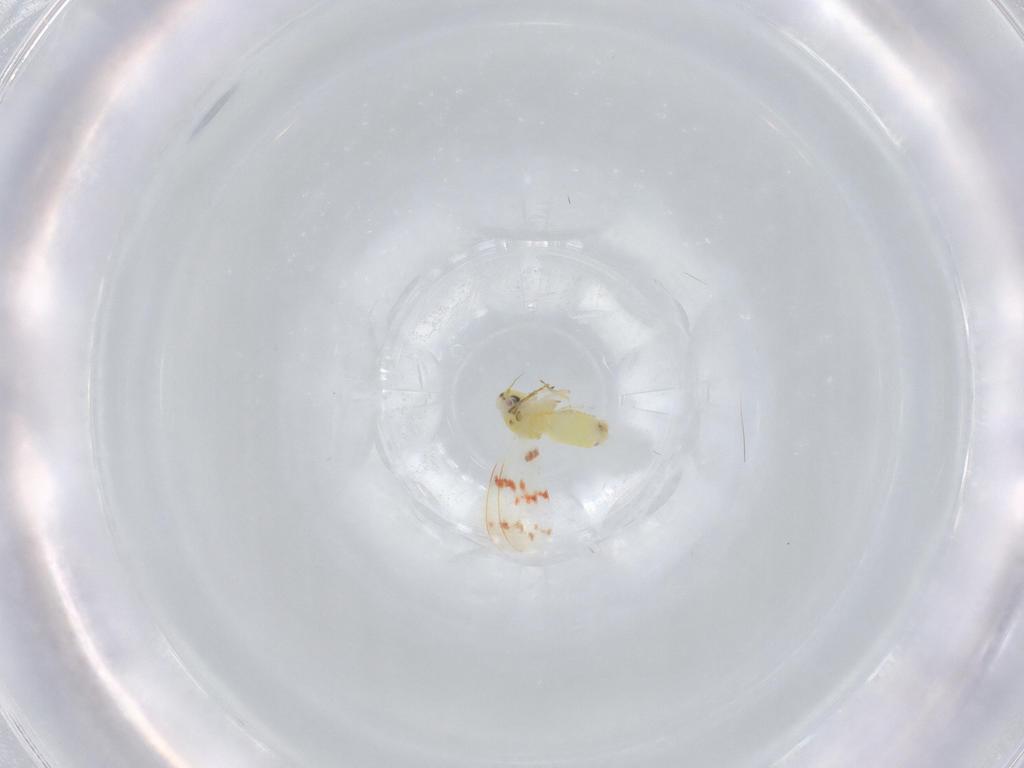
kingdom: Animalia
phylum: Arthropoda
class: Insecta
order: Hemiptera
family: Aleyrodidae
